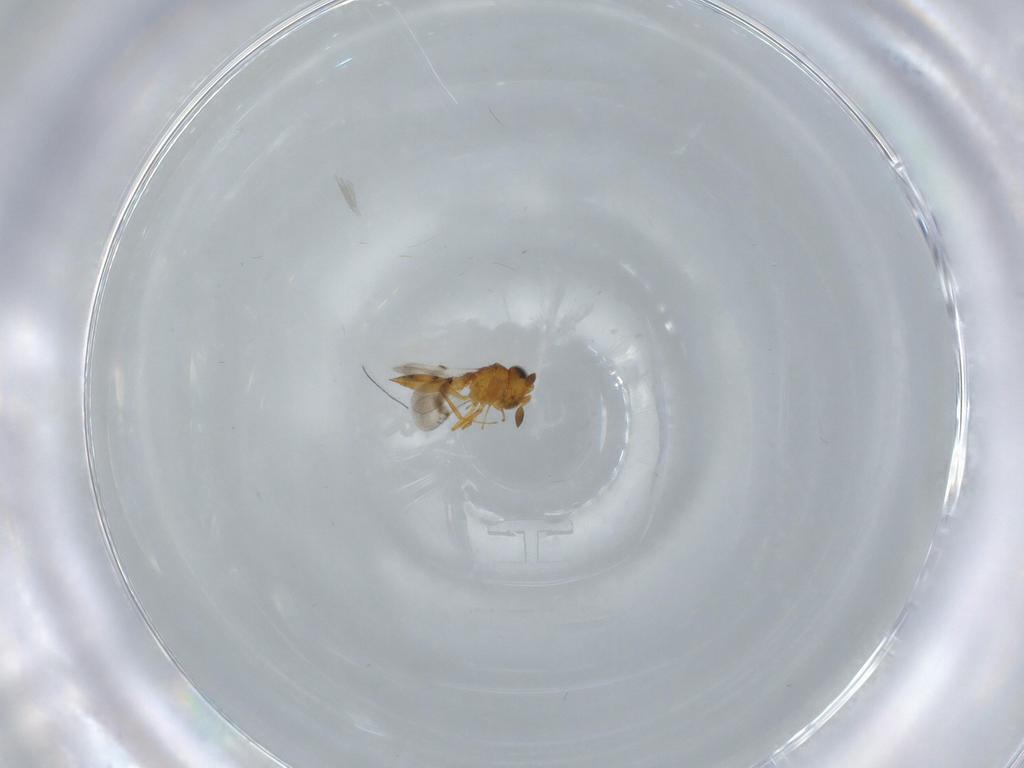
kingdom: Animalia
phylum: Arthropoda
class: Insecta
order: Hymenoptera
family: Scelionidae
